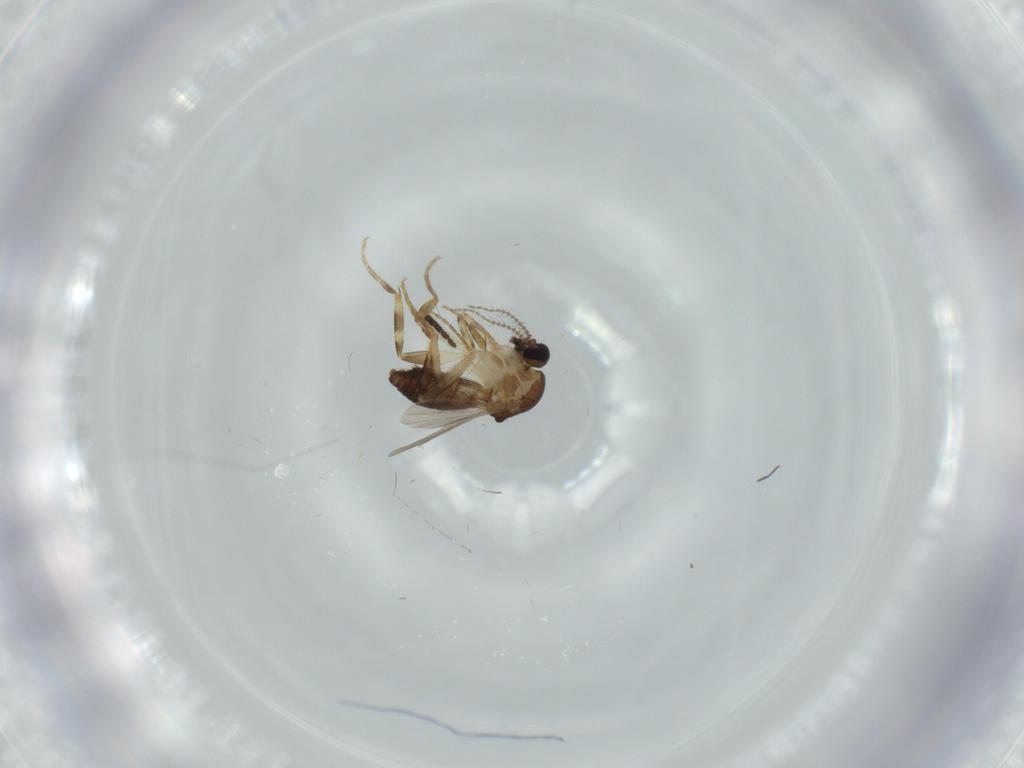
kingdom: Animalia
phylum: Arthropoda
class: Insecta
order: Diptera
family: Cecidomyiidae
